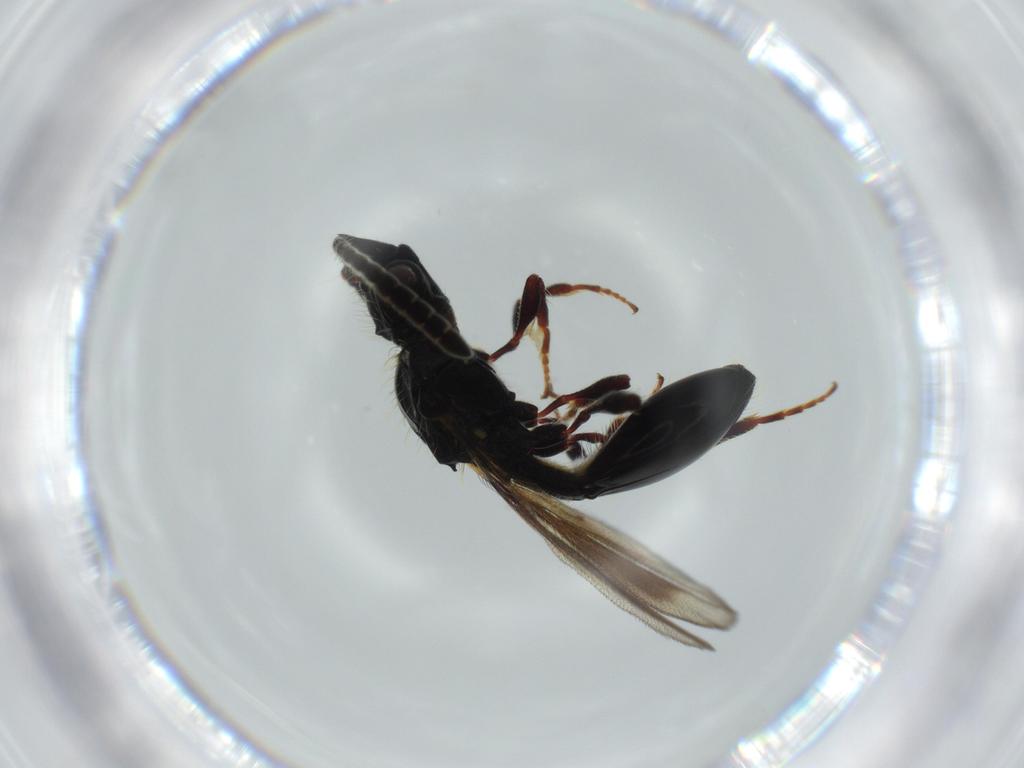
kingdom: Animalia
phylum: Arthropoda
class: Insecta
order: Hymenoptera
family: Diapriidae
